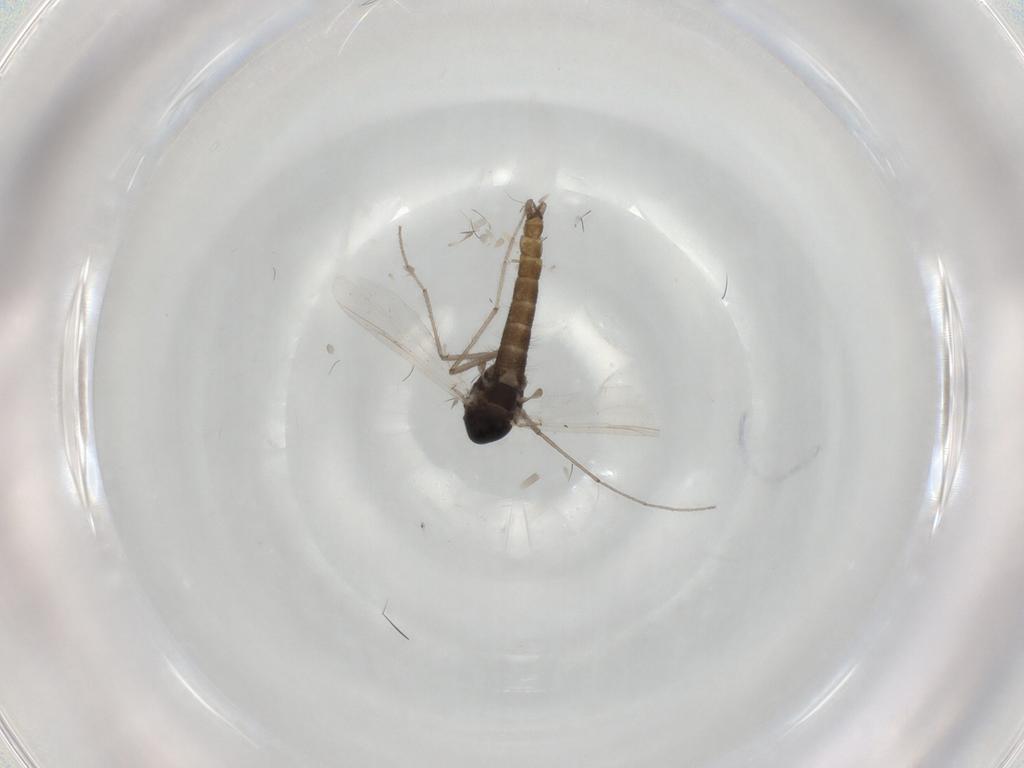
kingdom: Animalia
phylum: Arthropoda
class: Insecta
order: Diptera
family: Chironomidae
